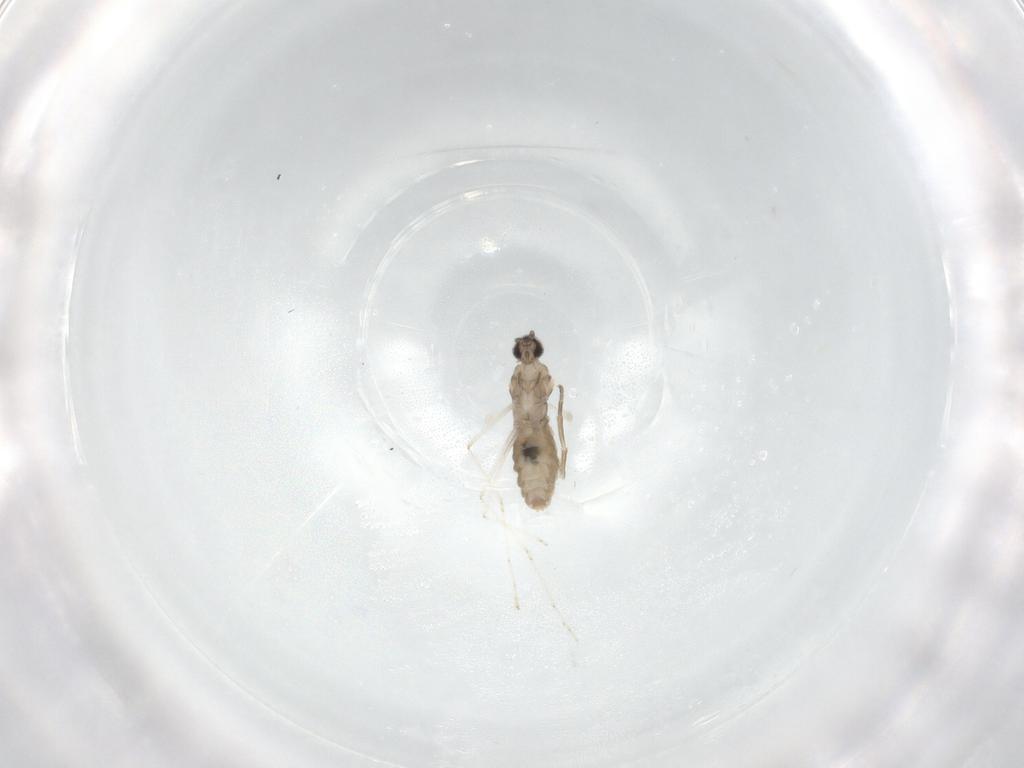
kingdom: Animalia
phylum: Arthropoda
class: Insecta
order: Diptera
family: Cecidomyiidae
